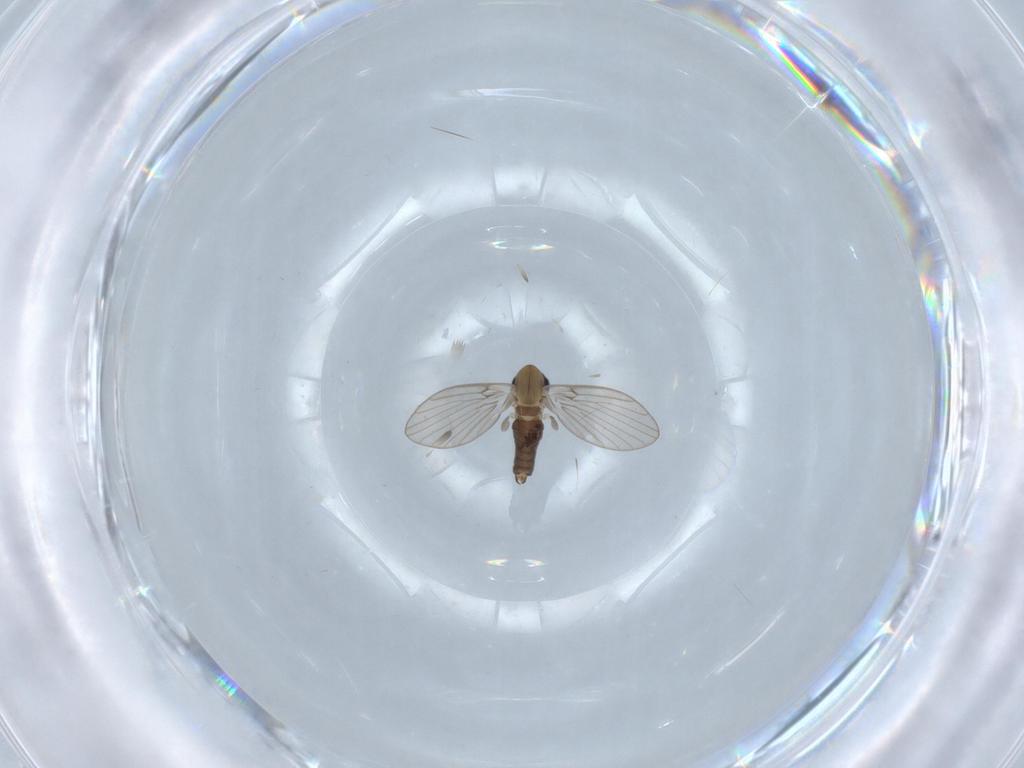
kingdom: Animalia
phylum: Arthropoda
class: Insecta
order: Diptera
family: Psychodidae
